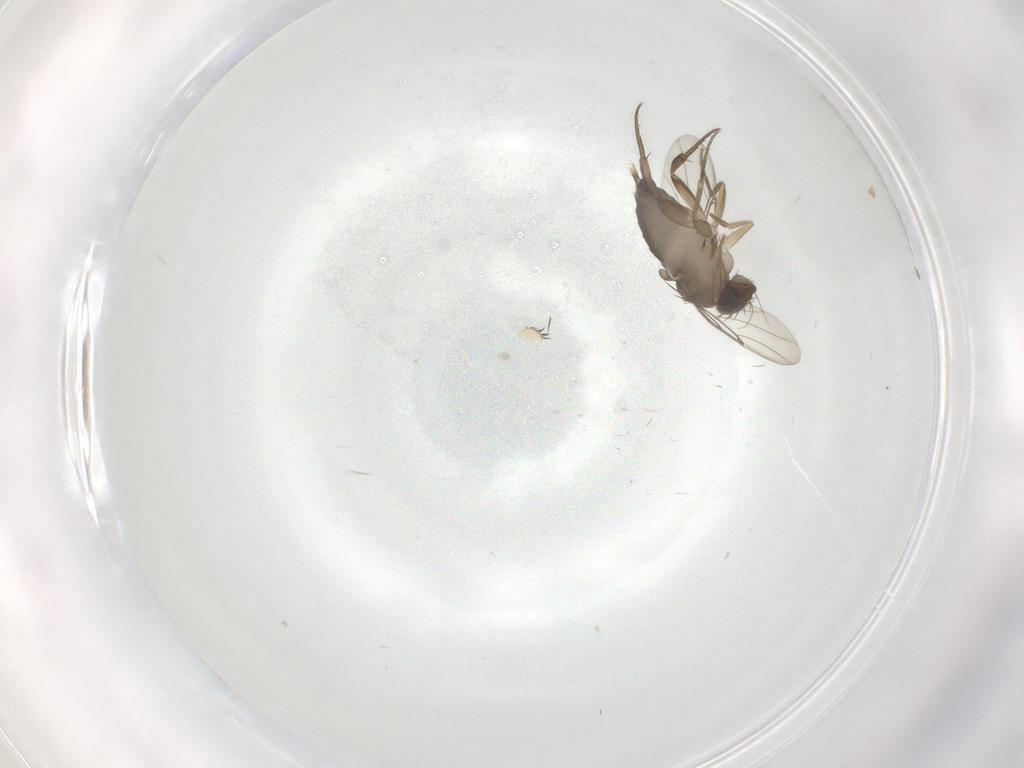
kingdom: Animalia
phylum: Arthropoda
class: Insecta
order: Diptera
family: Phoridae
